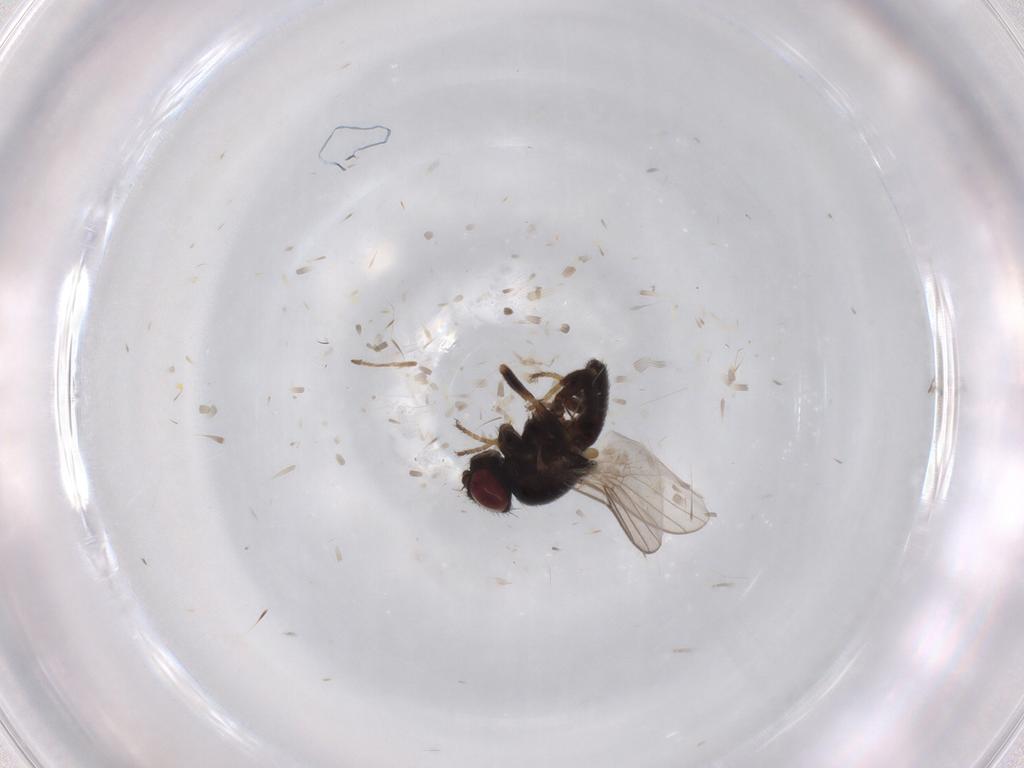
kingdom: Animalia
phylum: Arthropoda
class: Insecta
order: Diptera
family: Chloropidae
